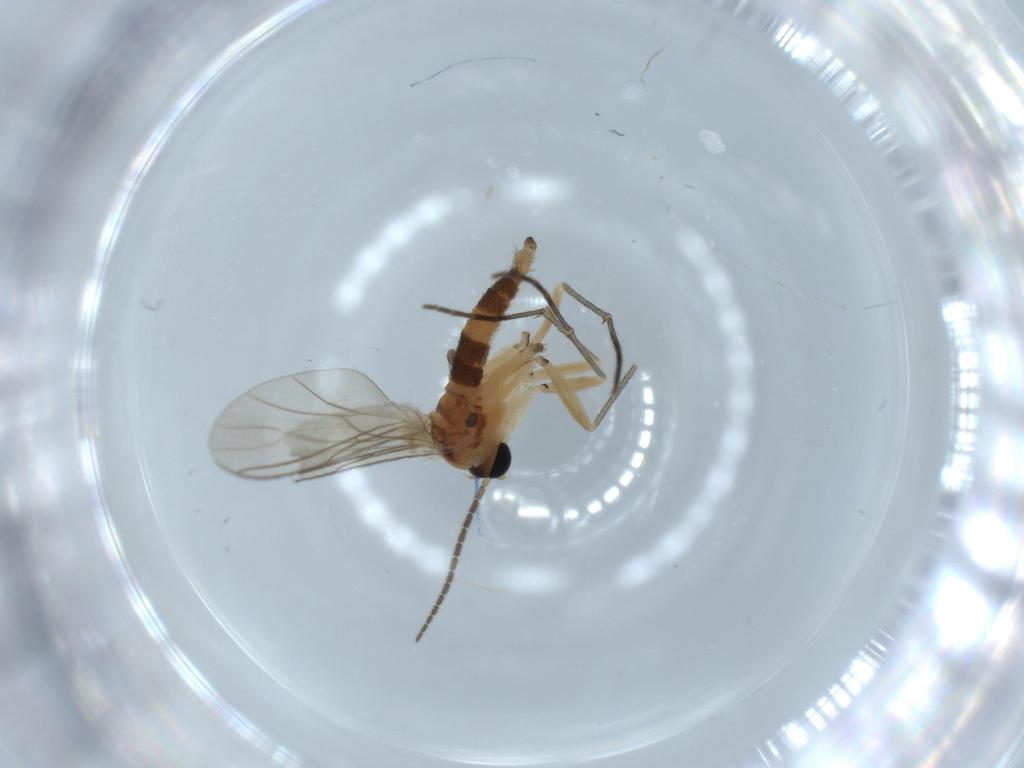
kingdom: Animalia
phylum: Arthropoda
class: Insecta
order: Diptera
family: Sciaridae
